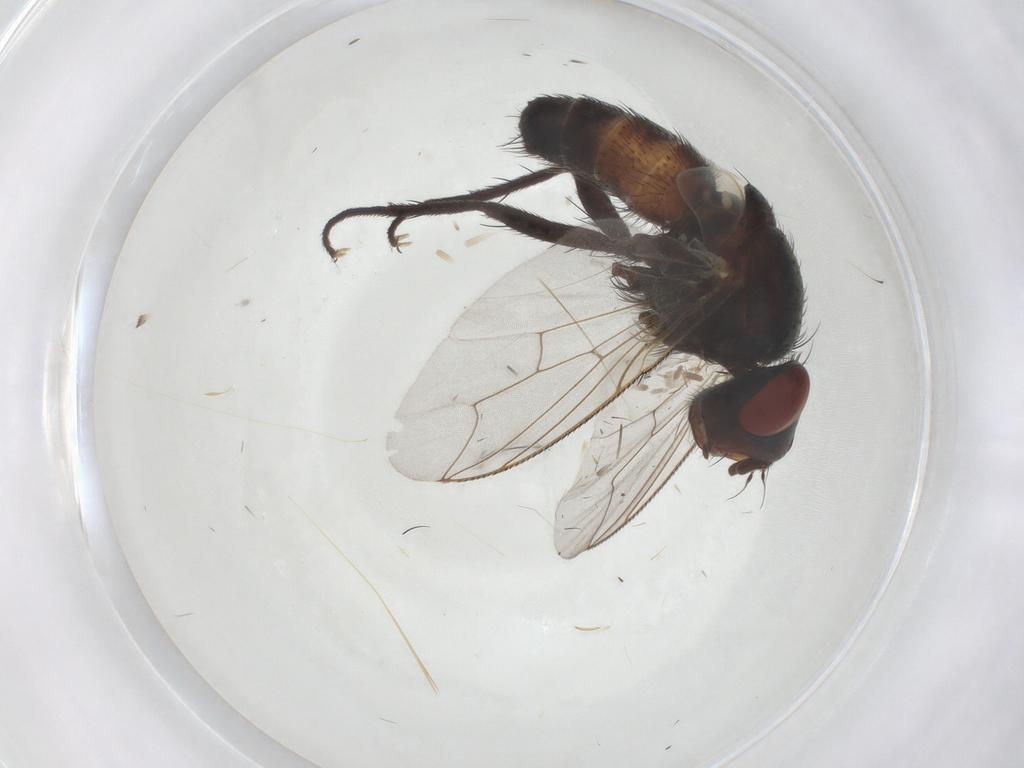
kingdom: Animalia
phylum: Arthropoda
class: Insecta
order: Diptera
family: Sarcophagidae
